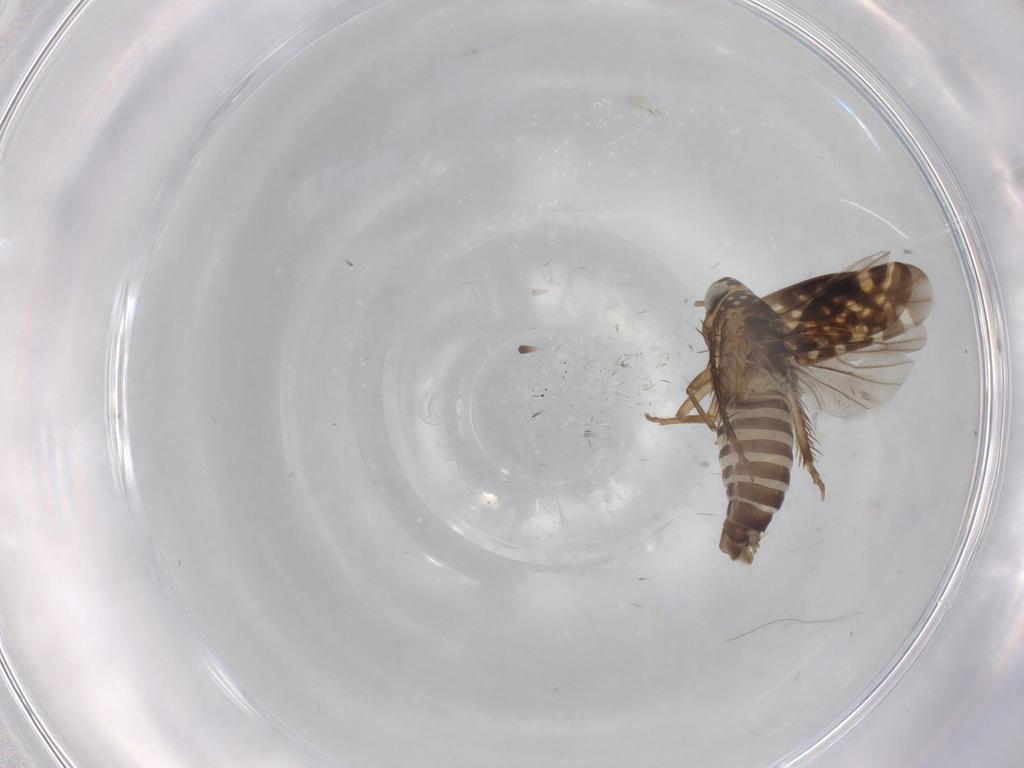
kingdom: Animalia
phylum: Arthropoda
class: Insecta
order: Hemiptera
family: Cicadellidae
